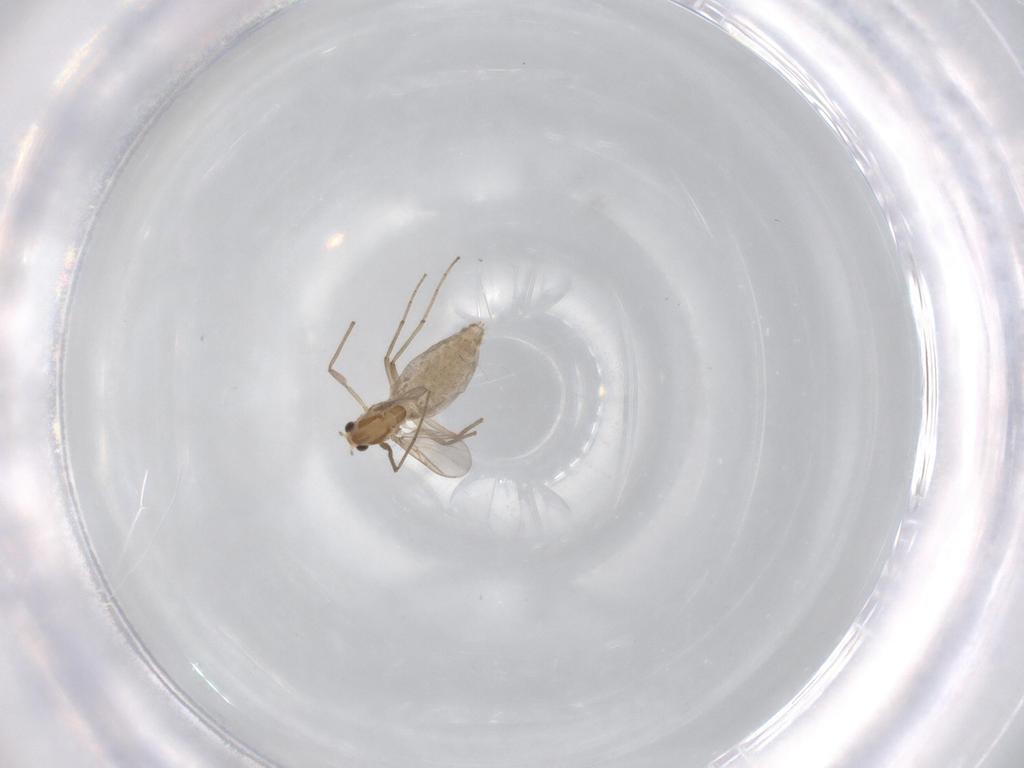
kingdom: Animalia
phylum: Arthropoda
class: Insecta
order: Diptera
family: Chironomidae
